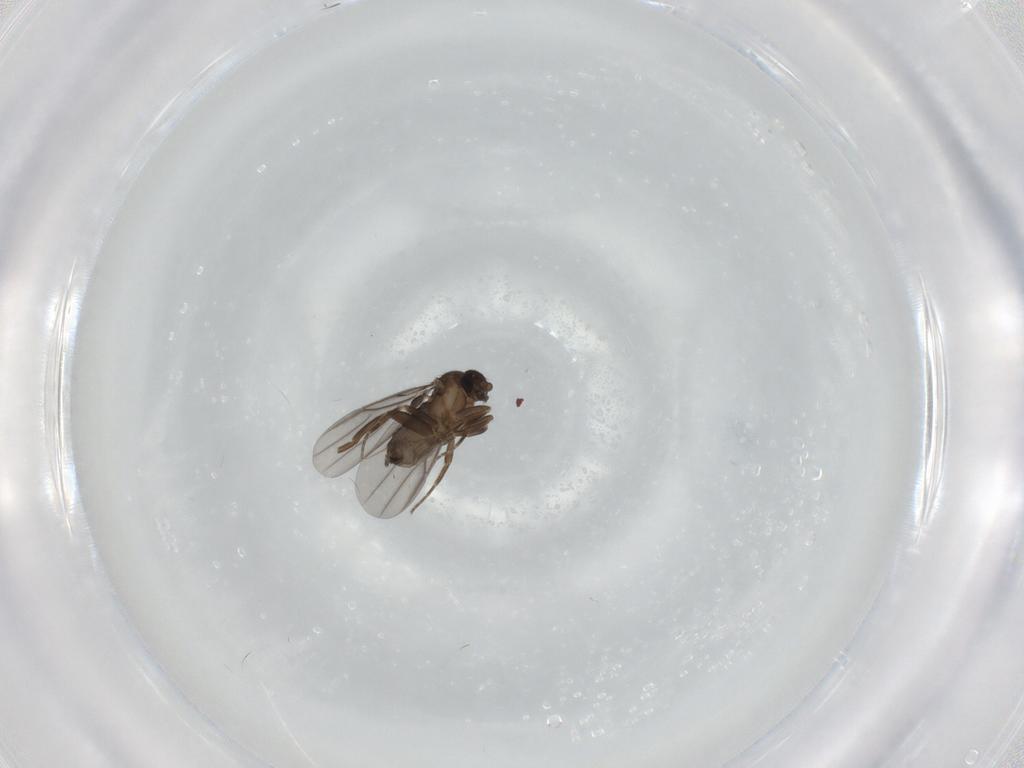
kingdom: Animalia
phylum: Arthropoda
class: Insecta
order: Diptera
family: Phoridae
